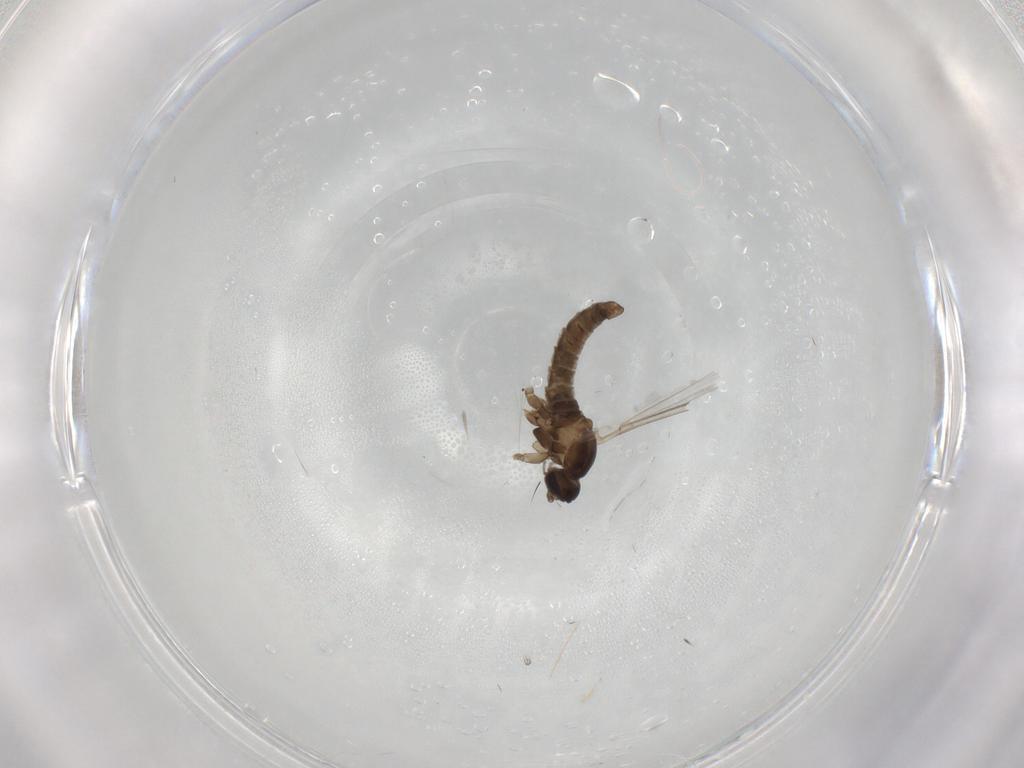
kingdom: Animalia
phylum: Arthropoda
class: Insecta
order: Diptera
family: Cecidomyiidae
